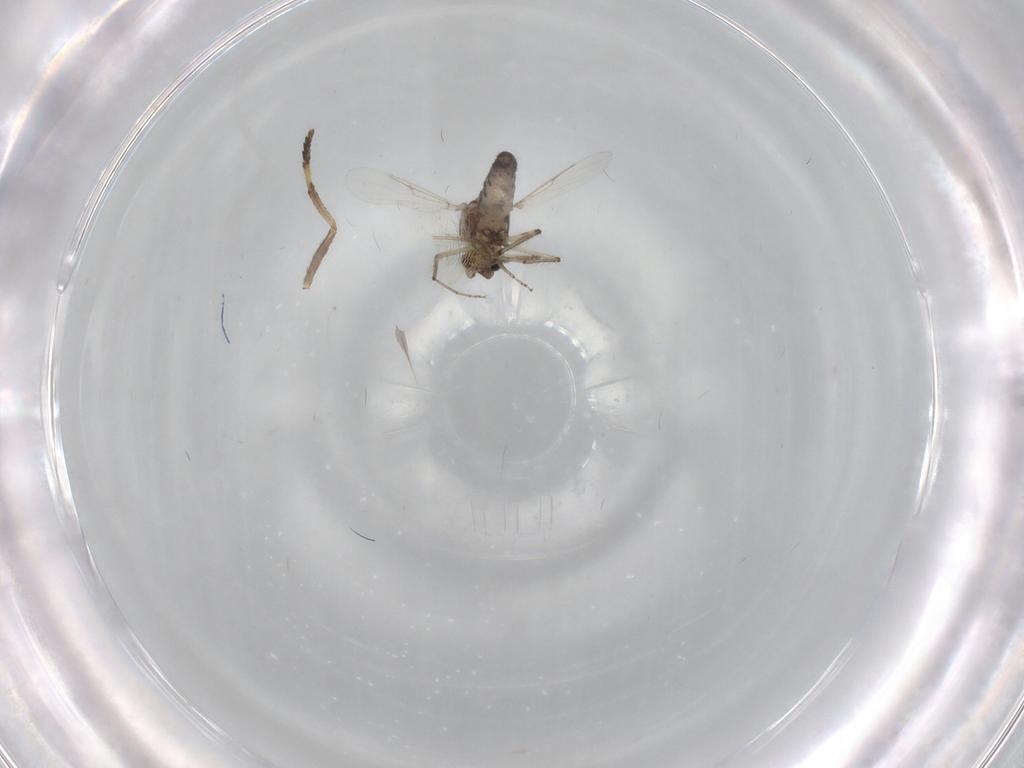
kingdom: Animalia
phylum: Arthropoda
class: Insecta
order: Diptera
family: Ceratopogonidae
